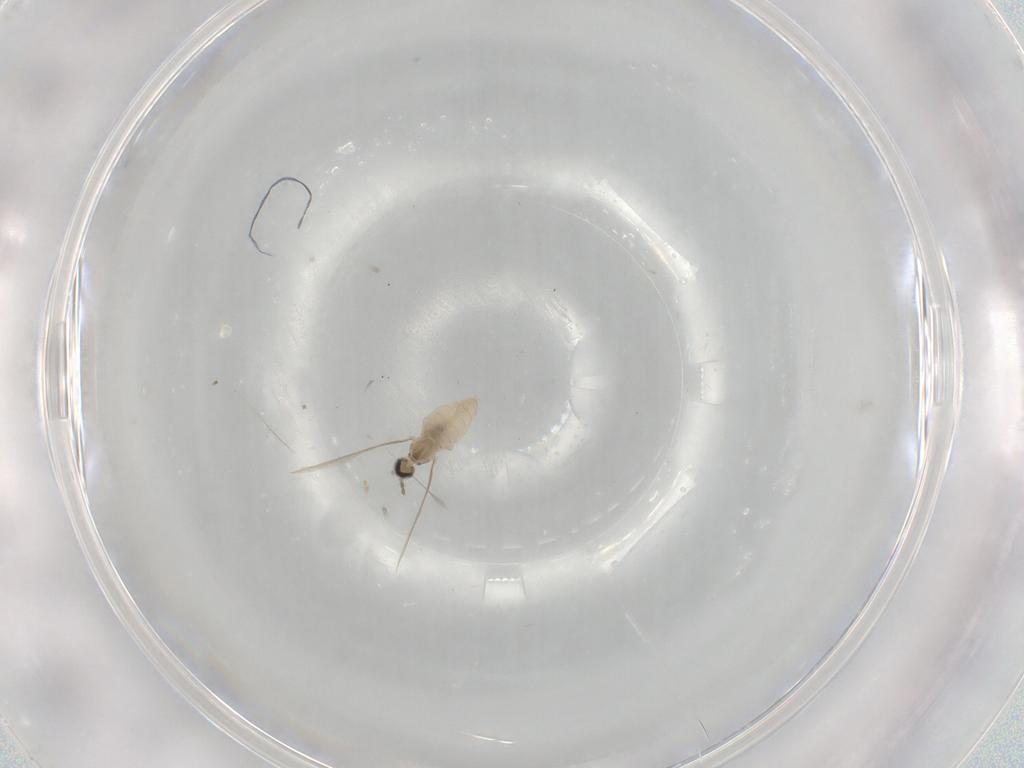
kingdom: Animalia
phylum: Arthropoda
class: Insecta
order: Diptera
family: Cecidomyiidae
